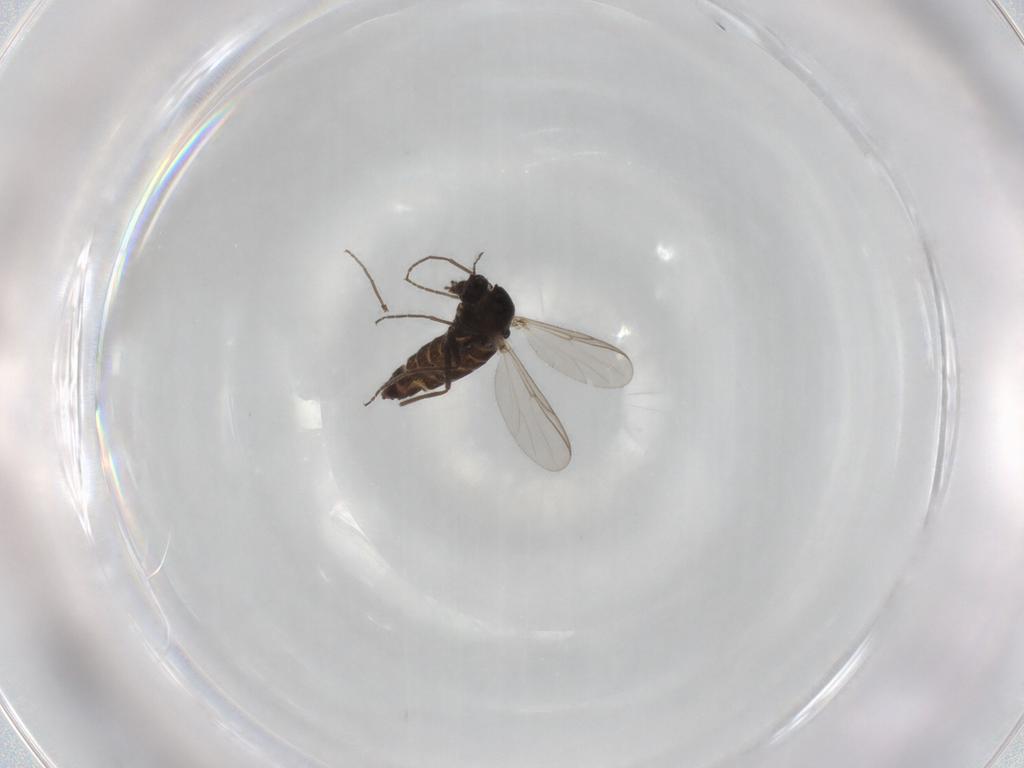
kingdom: Animalia
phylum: Arthropoda
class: Insecta
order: Diptera
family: Chironomidae
